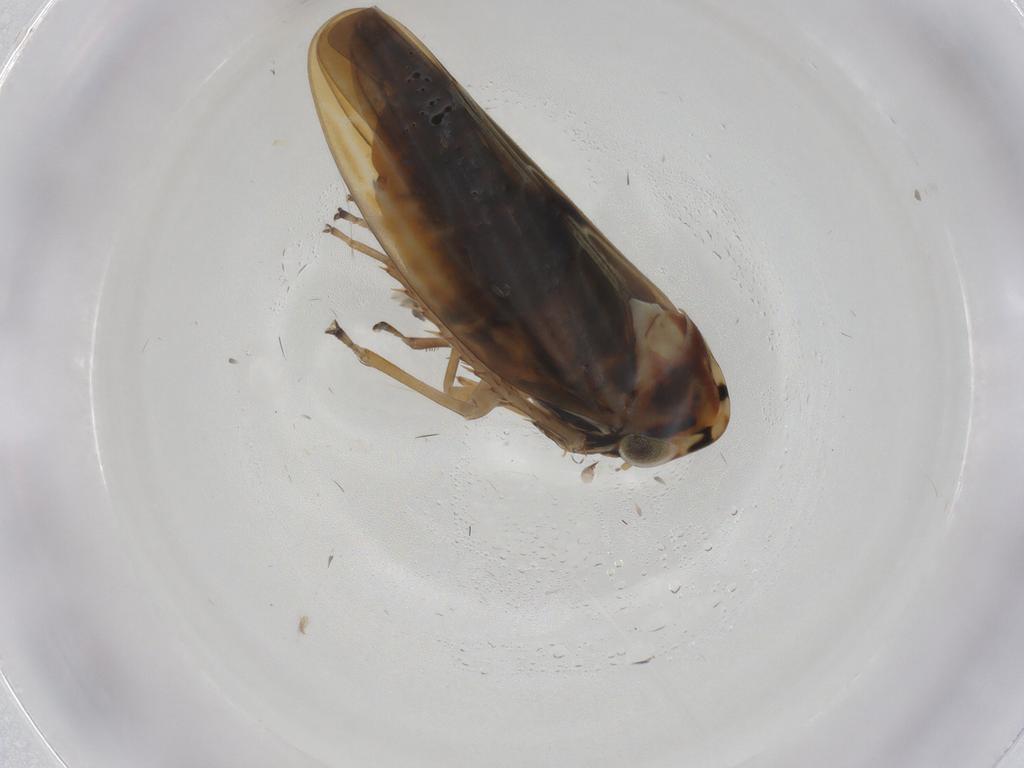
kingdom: Animalia
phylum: Arthropoda
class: Insecta
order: Hemiptera
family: Cicadellidae
